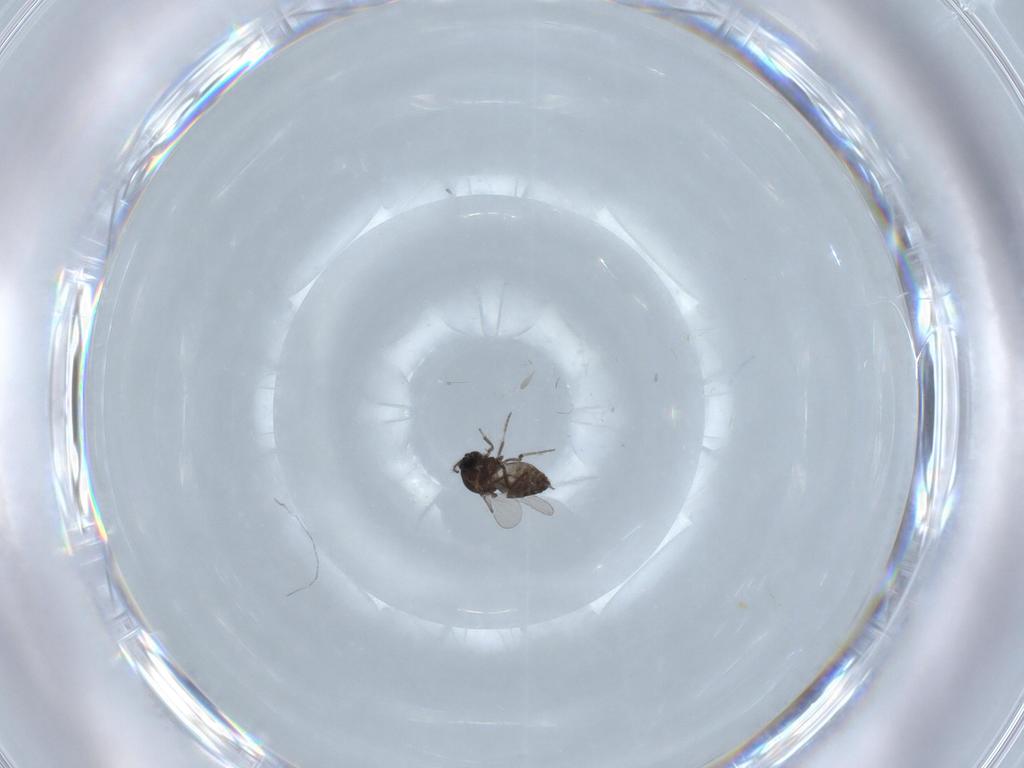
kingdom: Animalia
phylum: Arthropoda
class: Insecta
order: Diptera
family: Ceratopogonidae
